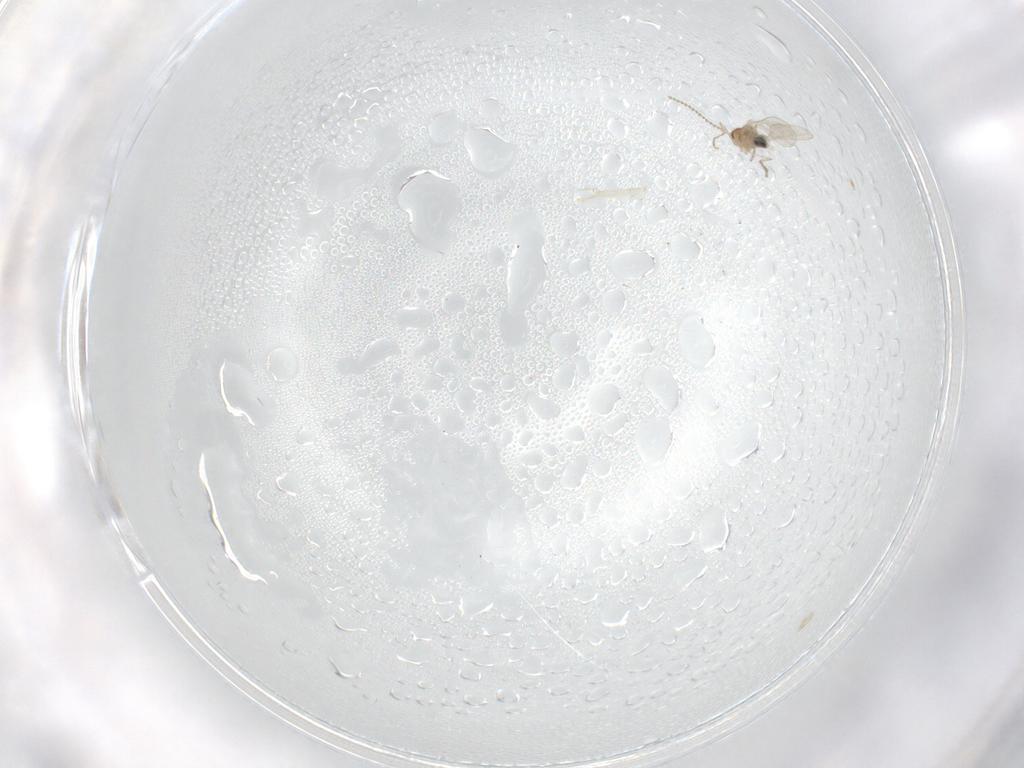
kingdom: Animalia
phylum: Arthropoda
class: Insecta
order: Diptera
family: Cecidomyiidae
